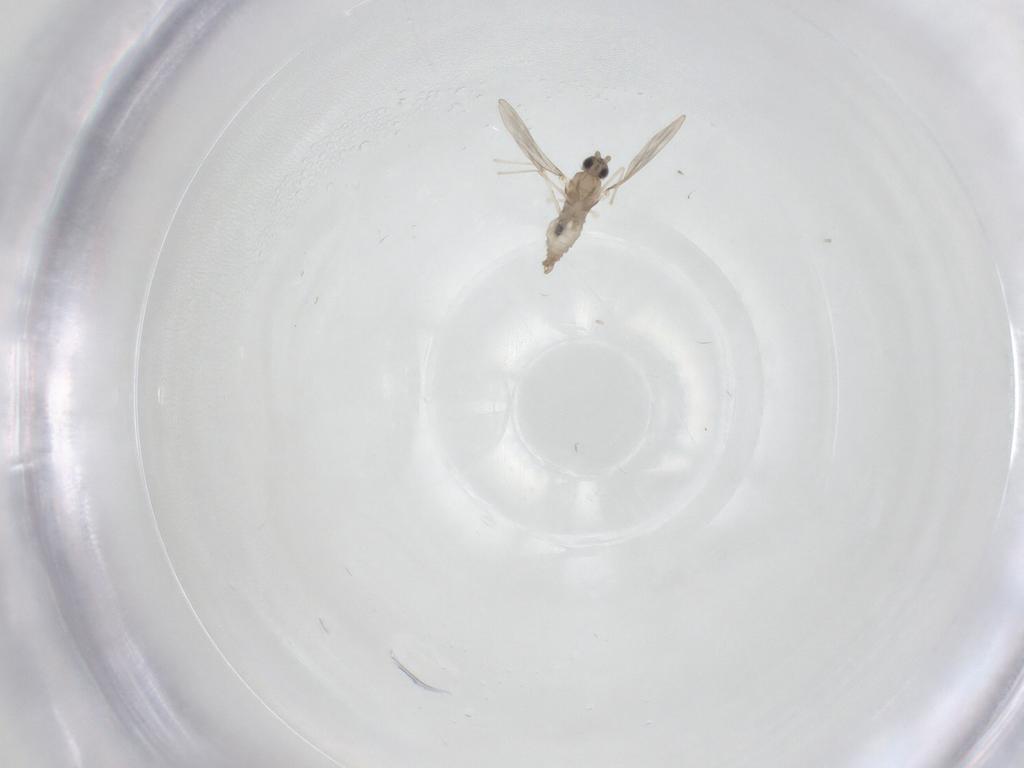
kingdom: Animalia
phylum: Arthropoda
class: Insecta
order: Diptera
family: Cecidomyiidae
